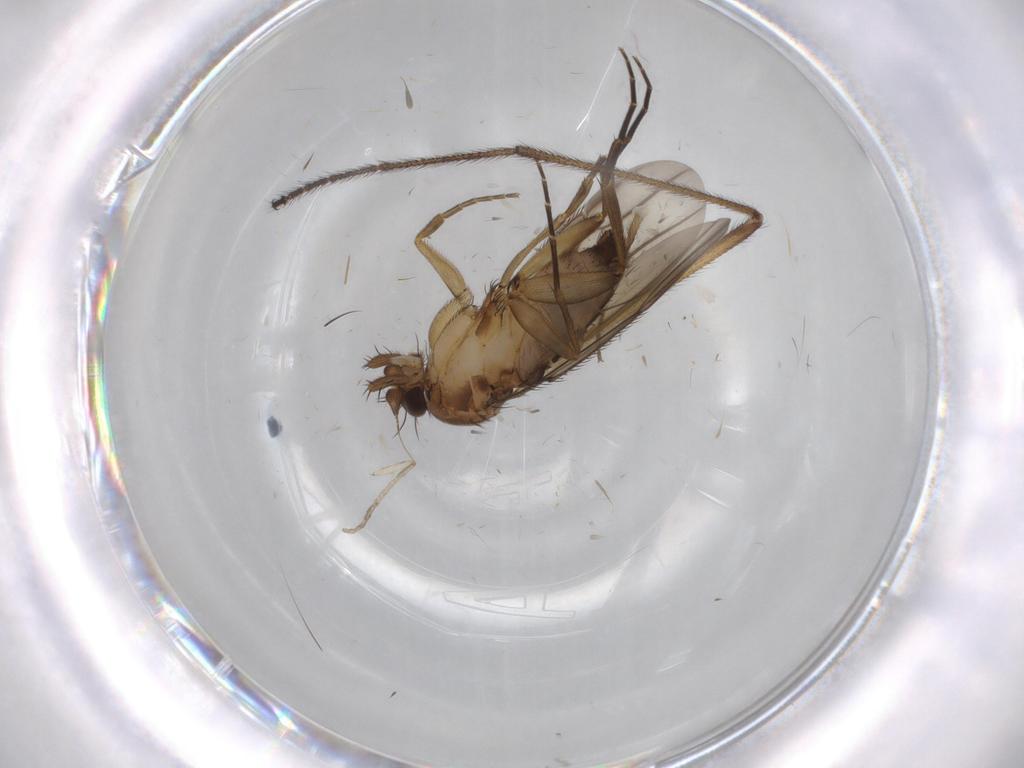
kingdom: Animalia
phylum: Arthropoda
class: Insecta
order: Diptera
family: Phoridae
